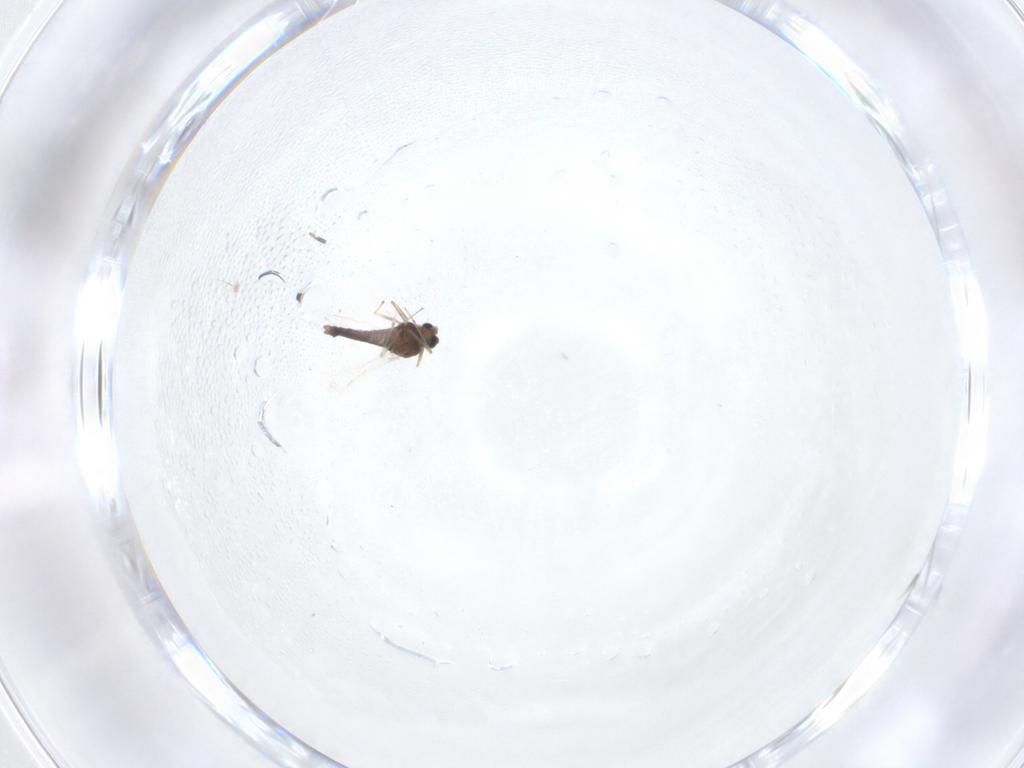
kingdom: Animalia
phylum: Arthropoda
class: Insecta
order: Diptera
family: Chironomidae
